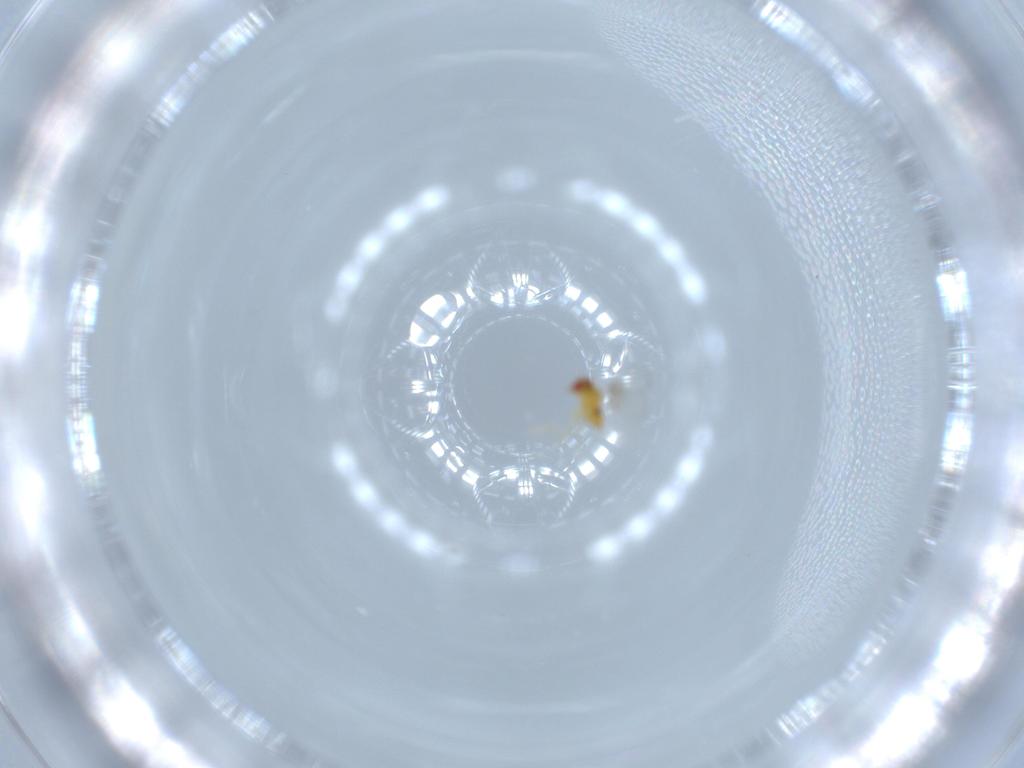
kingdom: Animalia
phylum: Arthropoda
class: Insecta
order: Hymenoptera
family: Trichogrammatidae
